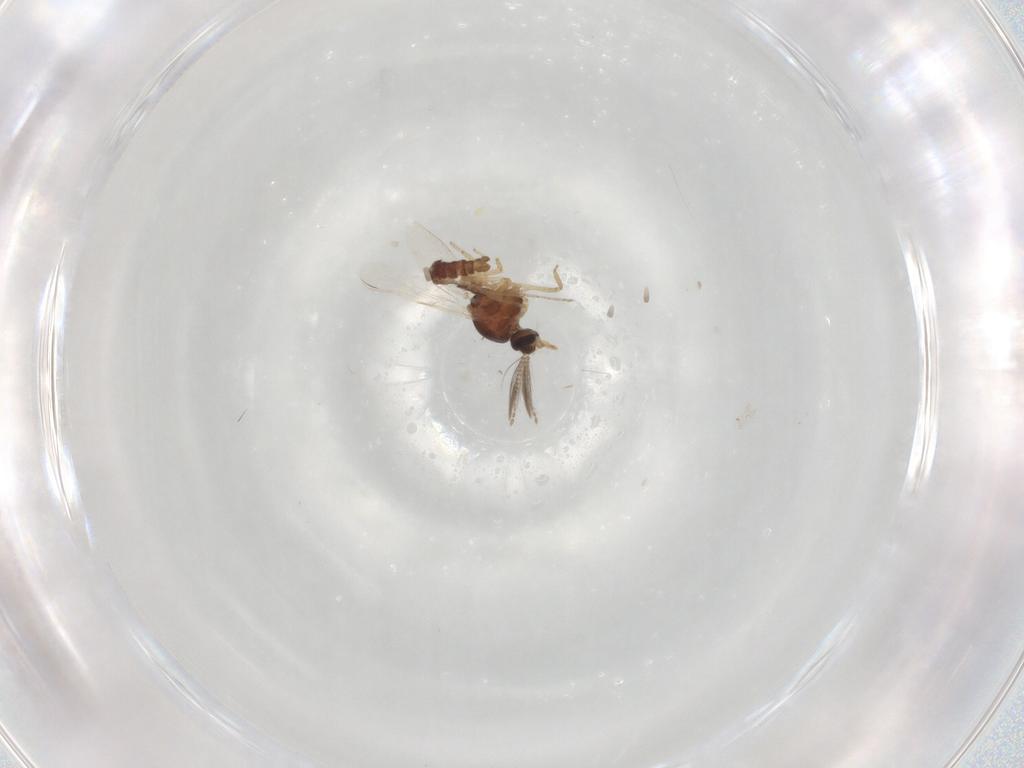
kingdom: Animalia
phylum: Arthropoda
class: Insecta
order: Diptera
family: Ceratopogonidae
